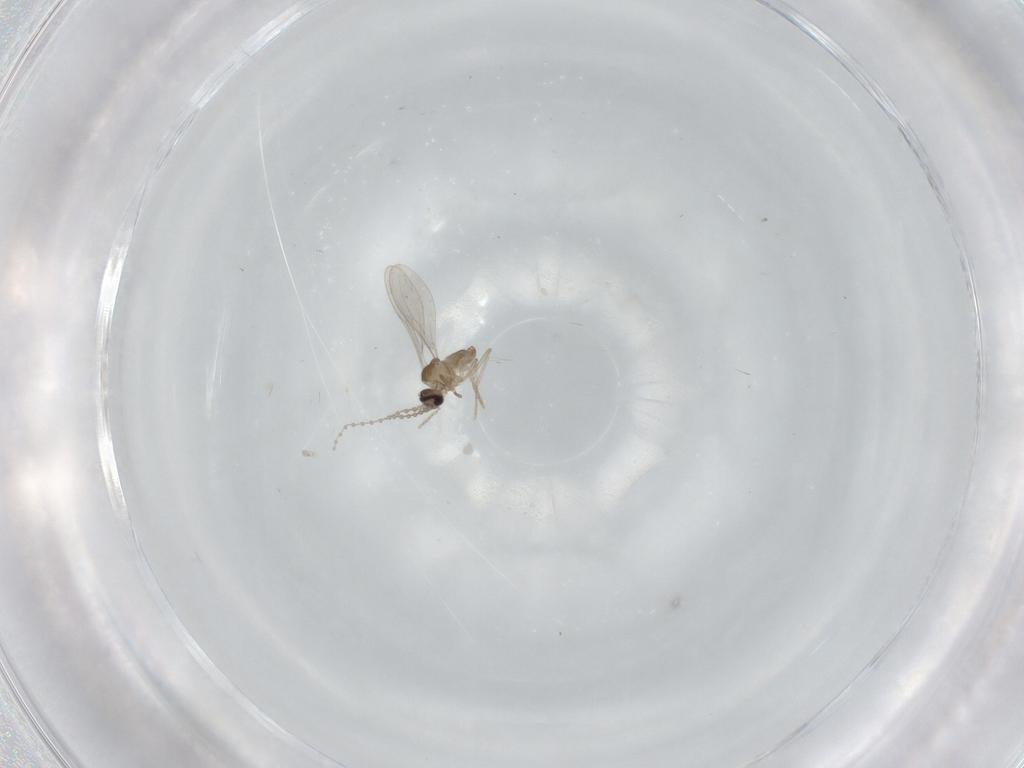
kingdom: Animalia
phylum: Arthropoda
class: Insecta
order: Diptera
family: Cecidomyiidae
